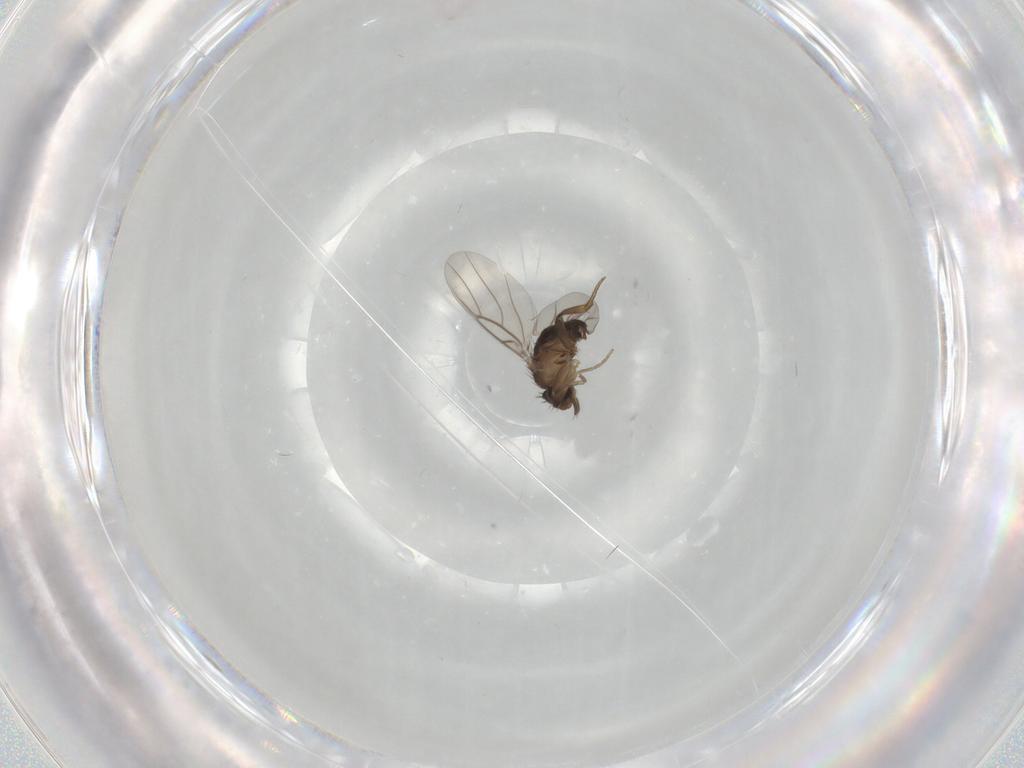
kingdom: Animalia
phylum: Arthropoda
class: Insecta
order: Diptera
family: Phoridae
